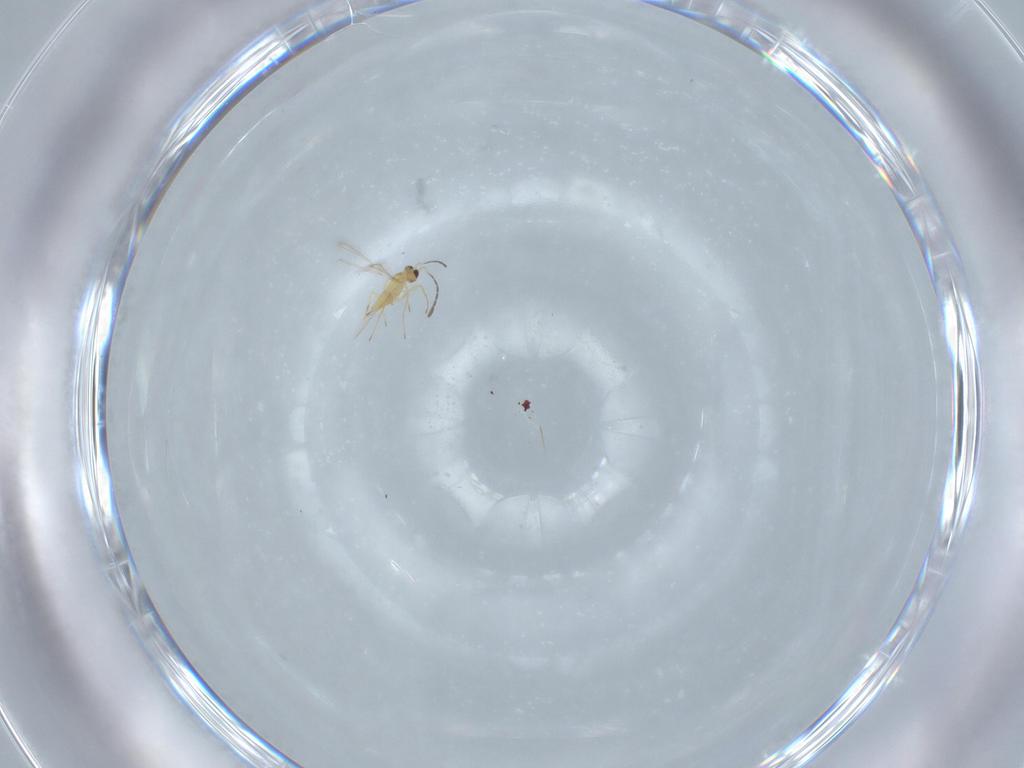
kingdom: Animalia
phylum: Arthropoda
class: Insecta
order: Hymenoptera
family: Mymaridae
